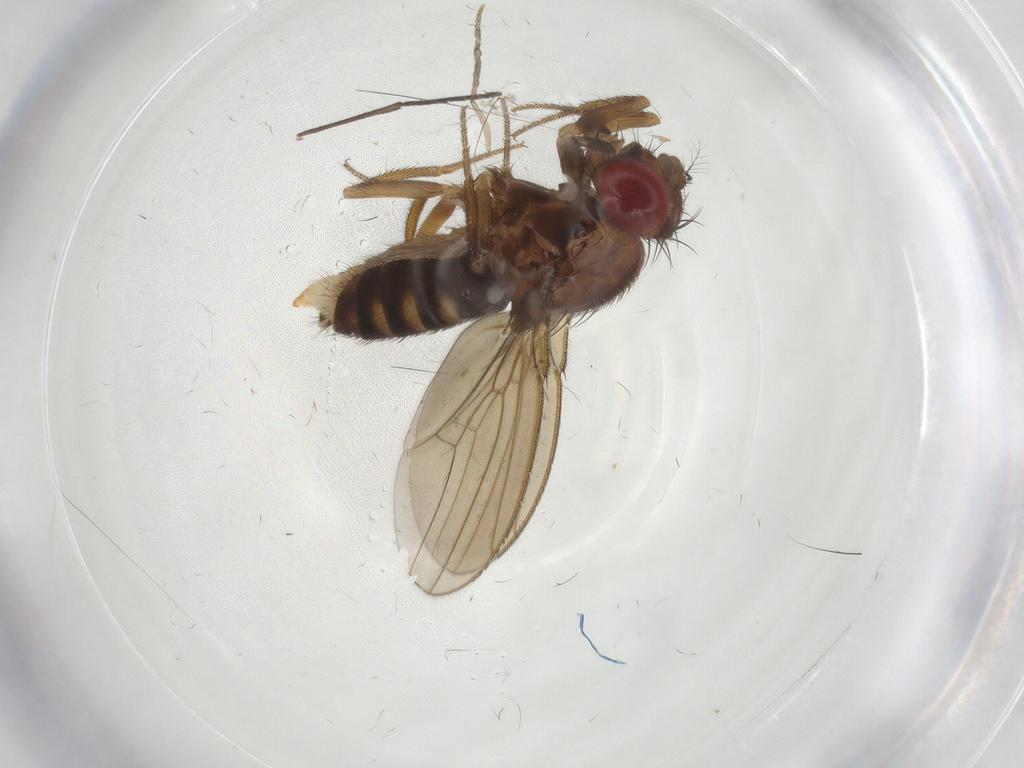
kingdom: Animalia
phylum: Arthropoda
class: Insecta
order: Diptera
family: Sciaridae
